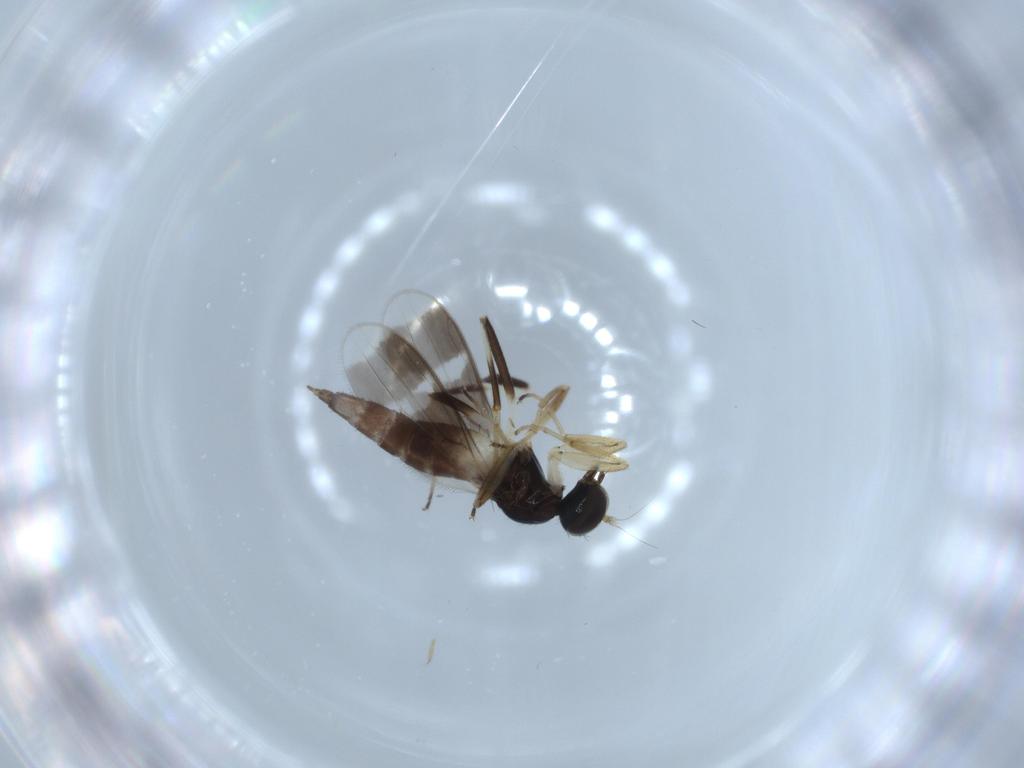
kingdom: Animalia
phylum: Arthropoda
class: Insecta
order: Diptera
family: Hybotidae
